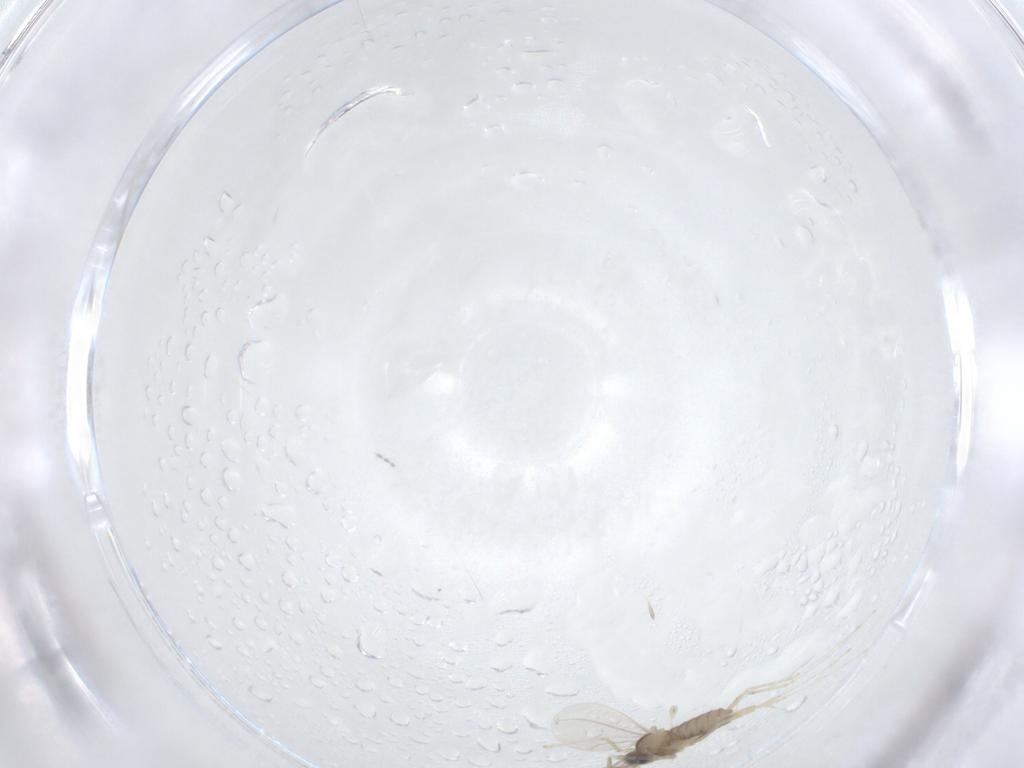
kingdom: Animalia
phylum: Arthropoda
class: Insecta
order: Diptera
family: Cecidomyiidae
